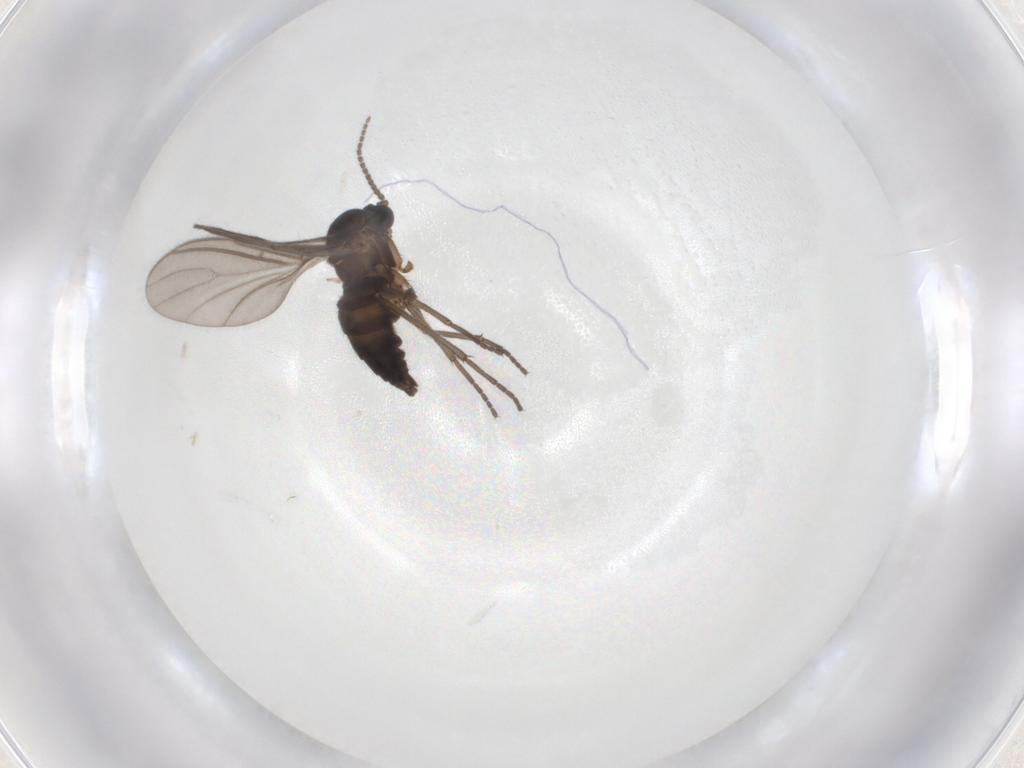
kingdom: Animalia
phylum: Arthropoda
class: Insecta
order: Diptera
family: Sciaridae
